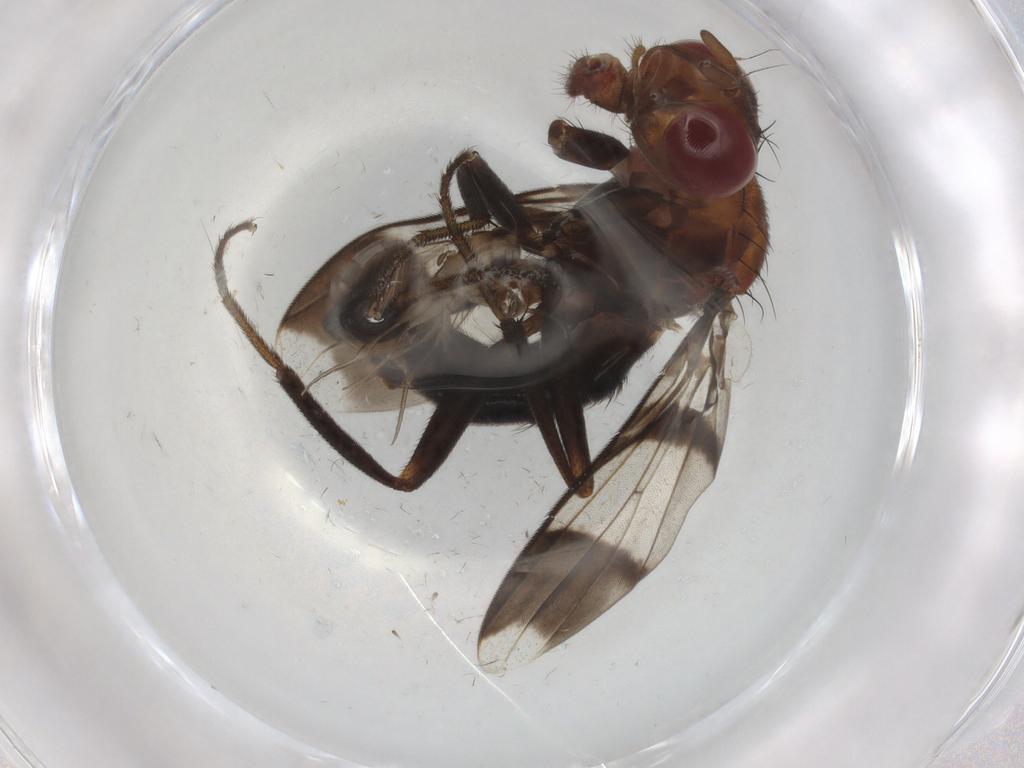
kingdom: Animalia
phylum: Arthropoda
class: Insecta
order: Diptera
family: Richardiidae
